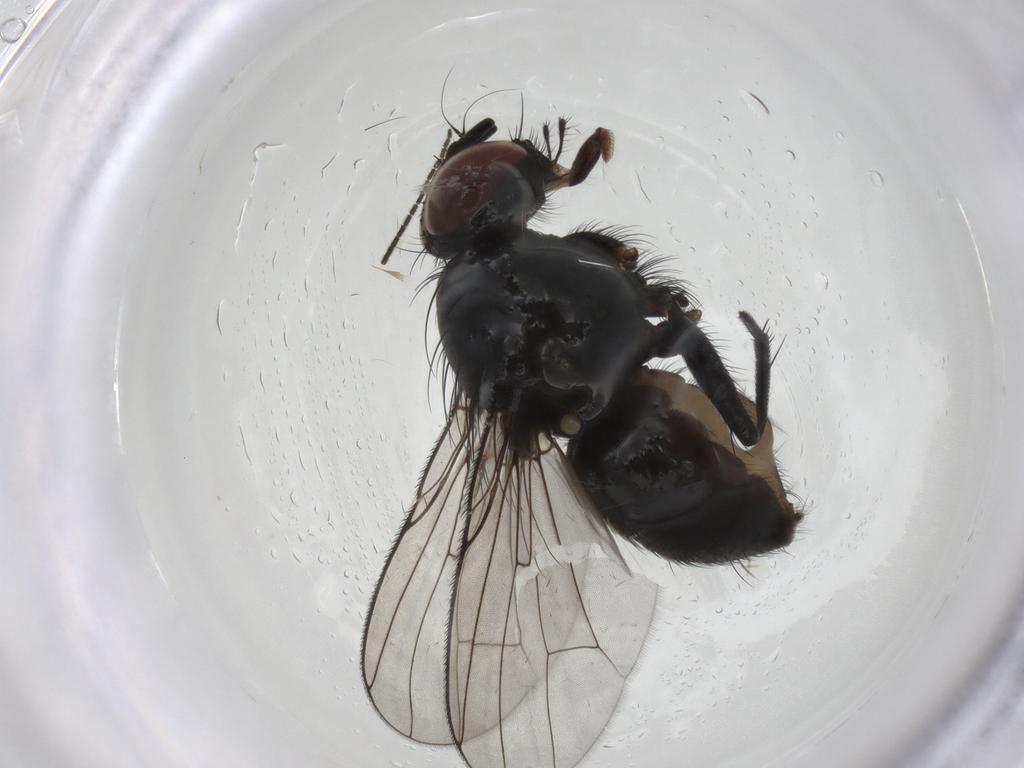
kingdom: Animalia
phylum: Arthropoda
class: Insecta
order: Diptera
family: Muscidae
